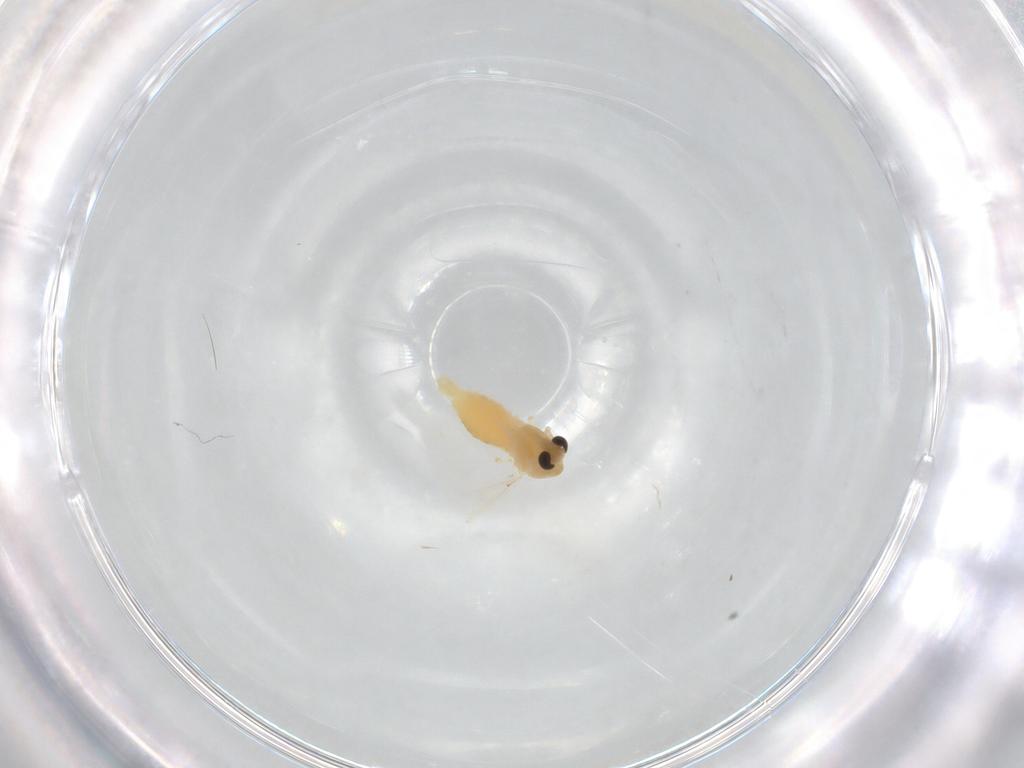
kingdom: Animalia
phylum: Arthropoda
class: Insecta
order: Diptera
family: Chironomidae
